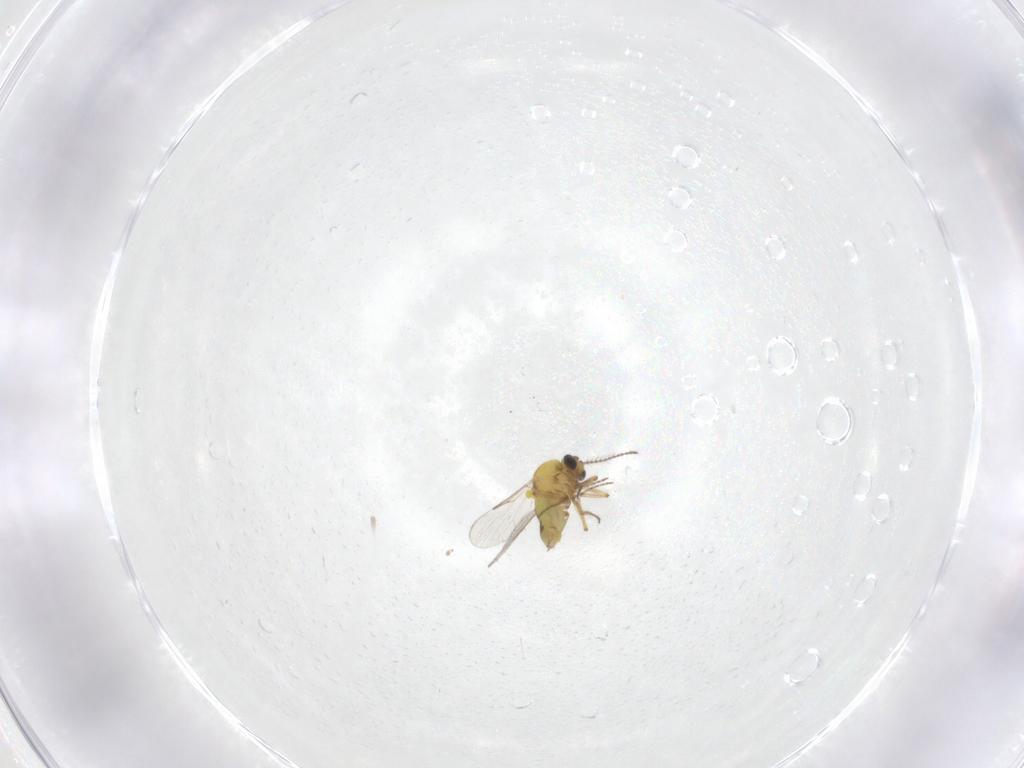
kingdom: Animalia
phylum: Arthropoda
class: Insecta
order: Diptera
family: Ceratopogonidae
